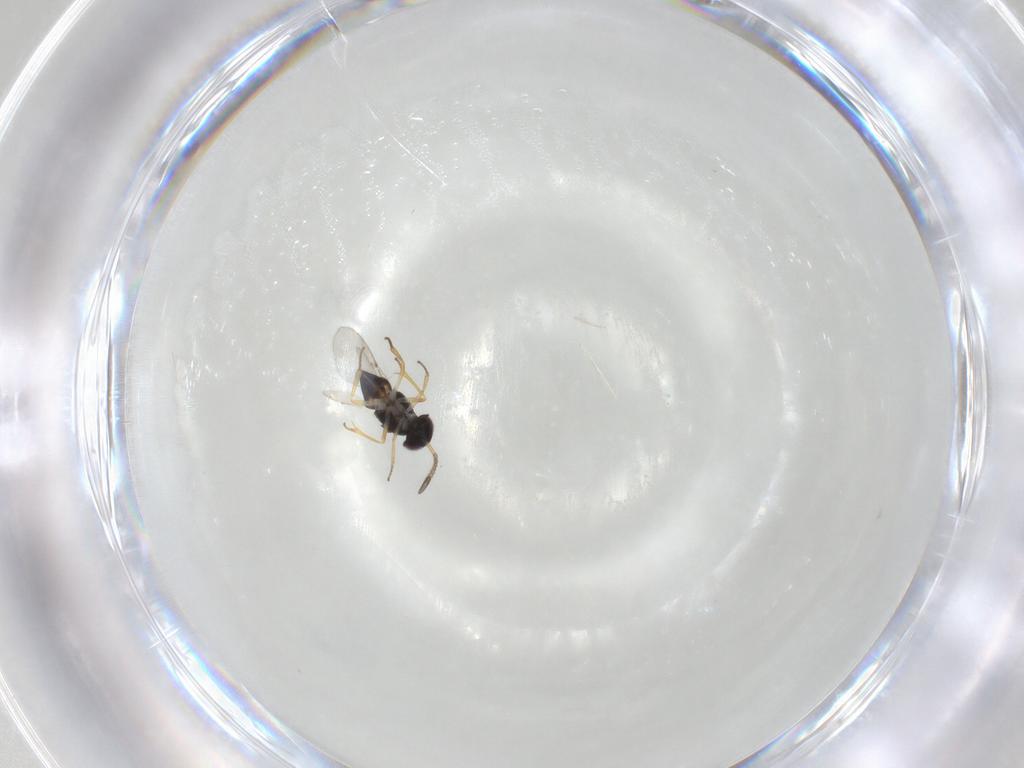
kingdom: Animalia
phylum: Arthropoda
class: Insecta
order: Hymenoptera
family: Encyrtidae
